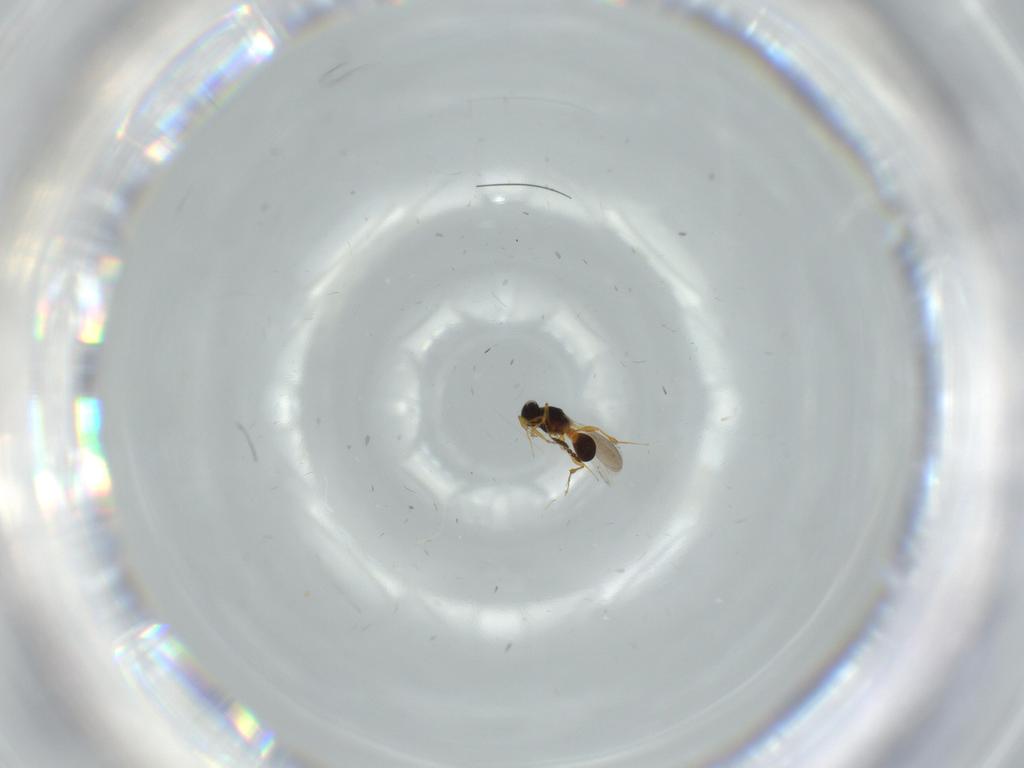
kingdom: Animalia
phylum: Arthropoda
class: Insecta
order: Hymenoptera
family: Platygastridae
